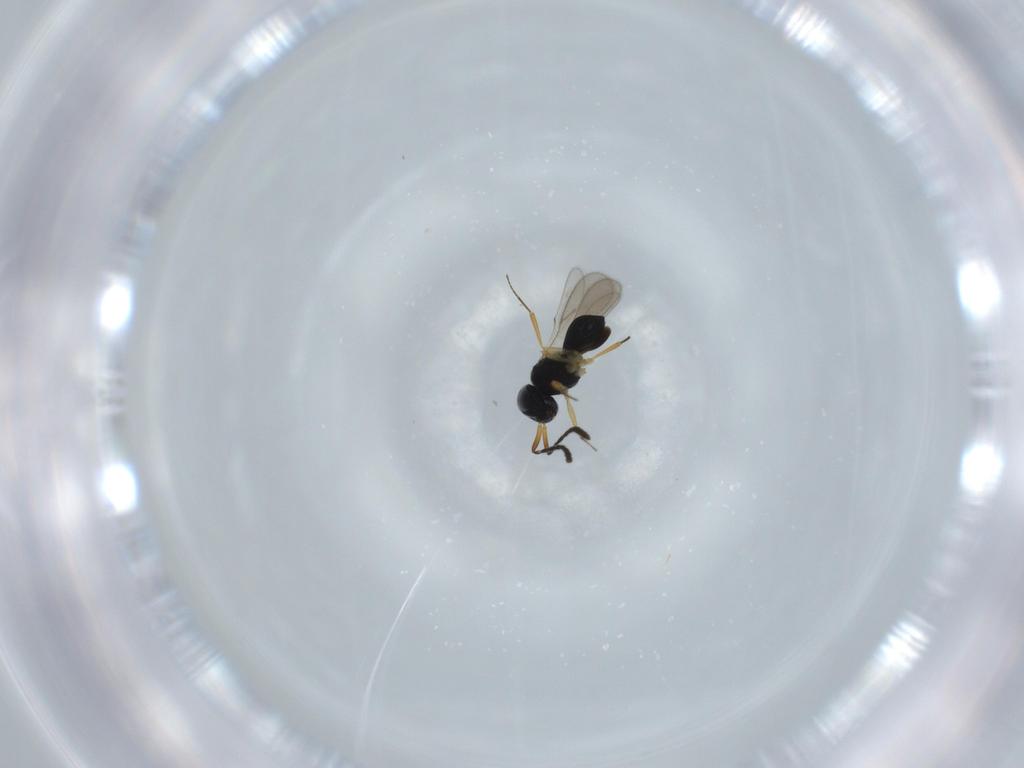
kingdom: Animalia
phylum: Arthropoda
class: Insecta
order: Hymenoptera
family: Scelionidae
